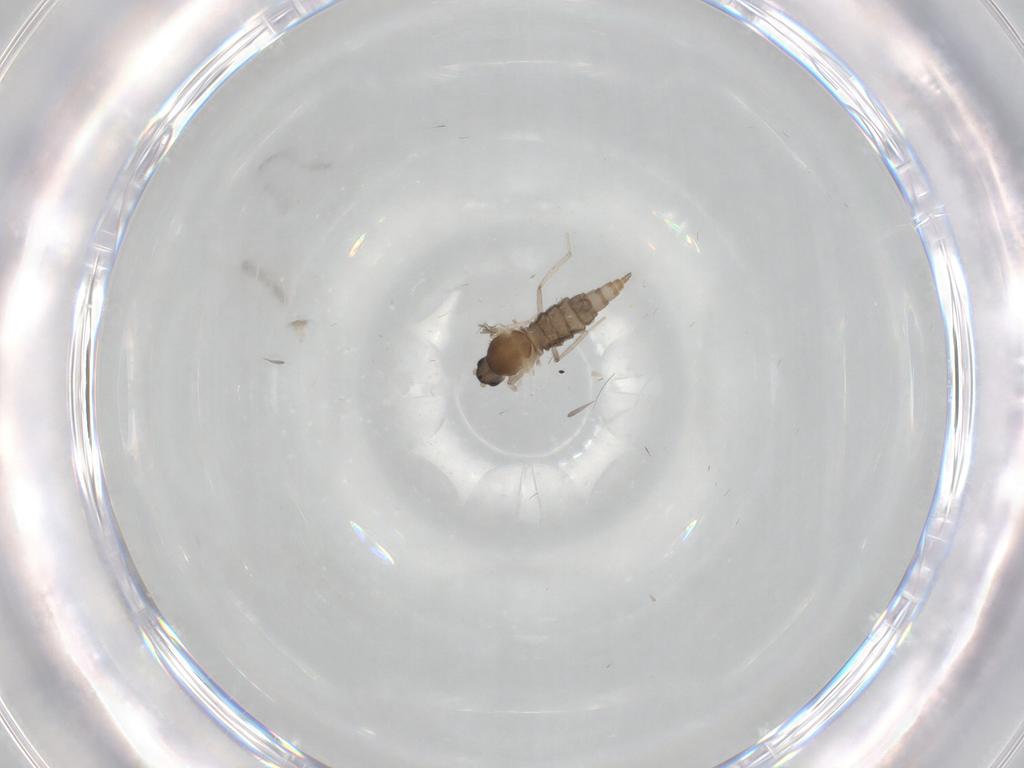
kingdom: Animalia
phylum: Arthropoda
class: Insecta
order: Diptera
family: Cecidomyiidae
